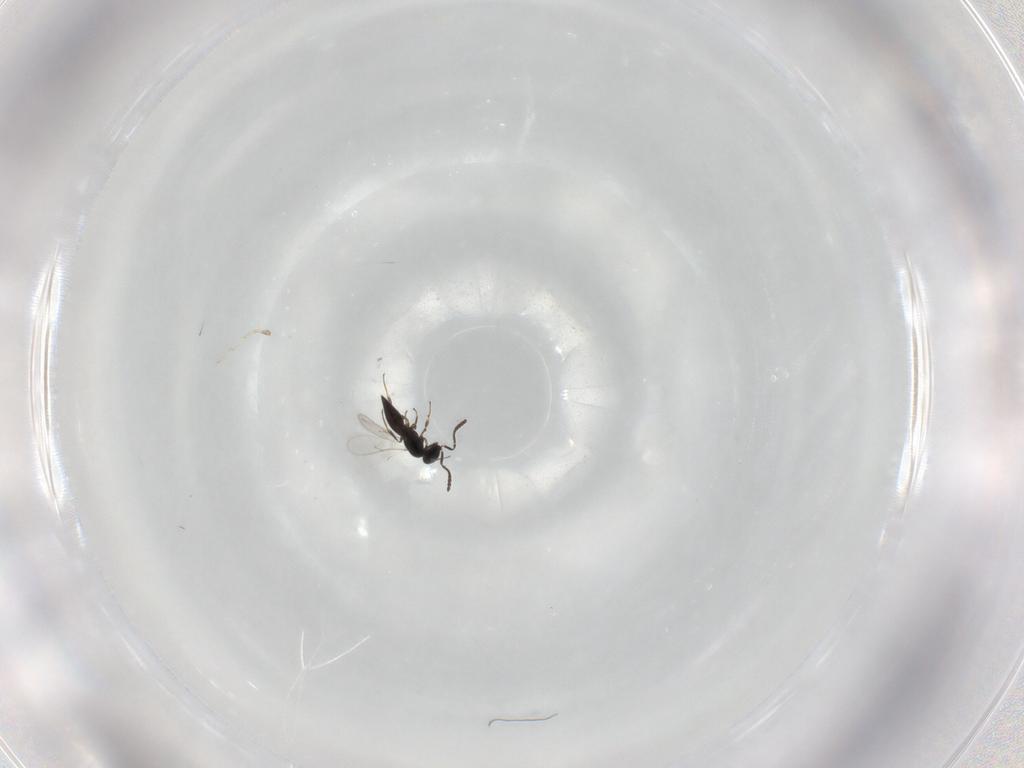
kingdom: Animalia
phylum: Arthropoda
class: Insecta
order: Hymenoptera
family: Scelionidae
